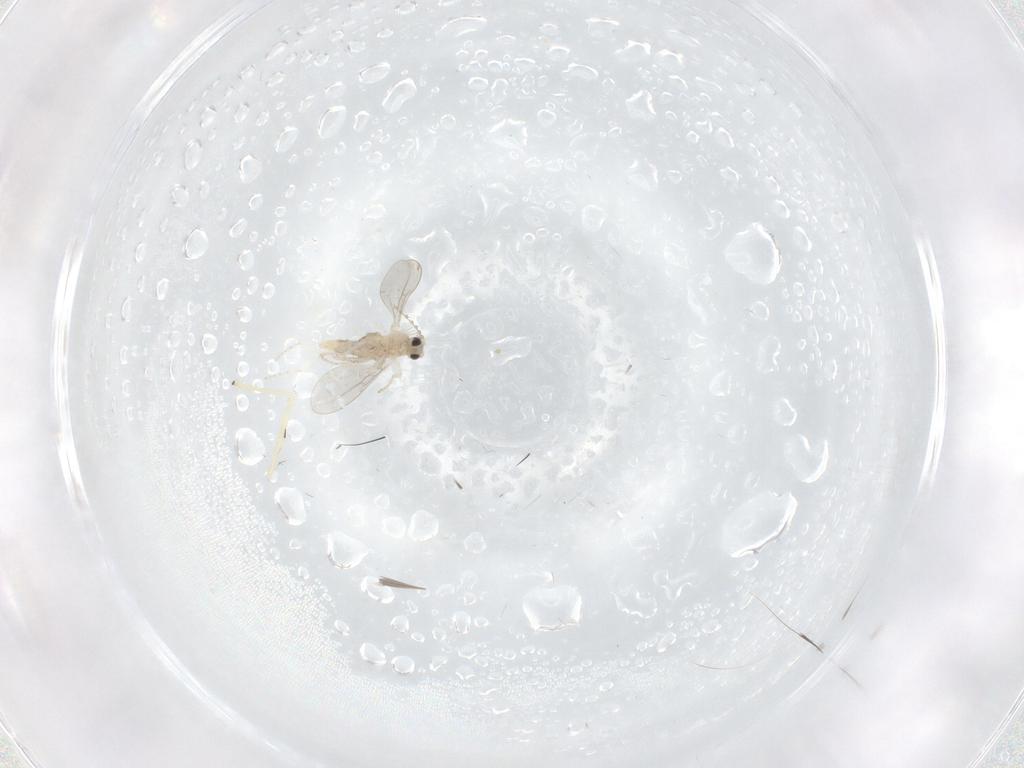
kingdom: Animalia
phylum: Arthropoda
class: Insecta
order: Diptera
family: Cecidomyiidae
